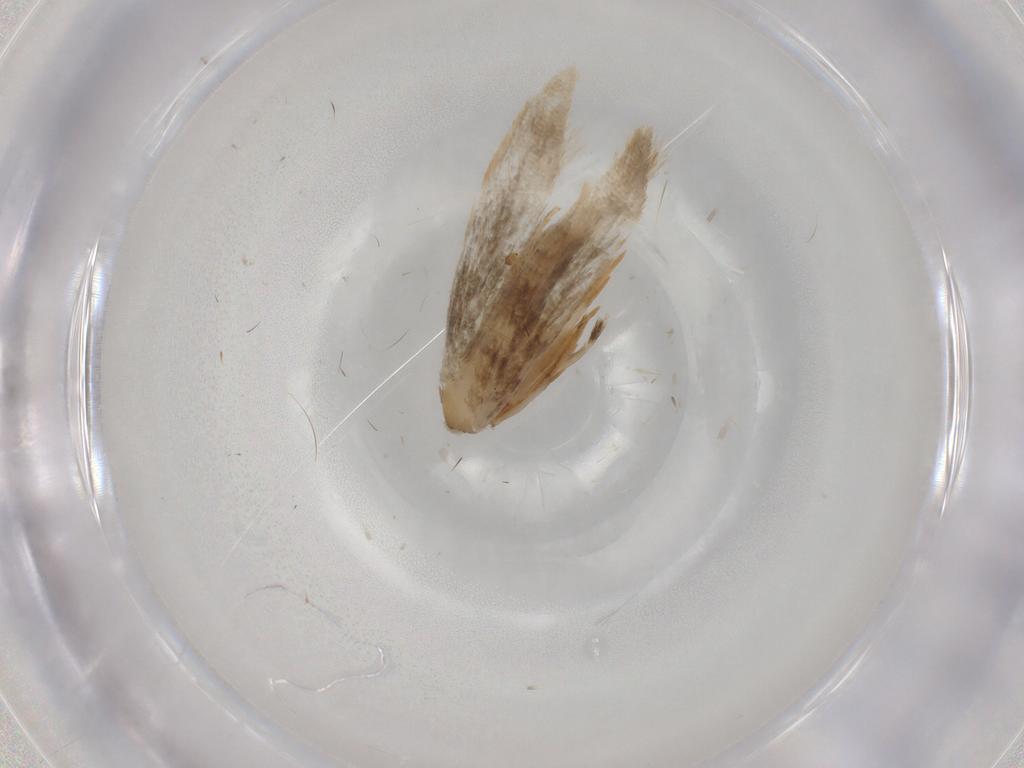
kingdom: Animalia
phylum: Arthropoda
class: Insecta
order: Lepidoptera
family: Cosmopterigidae
